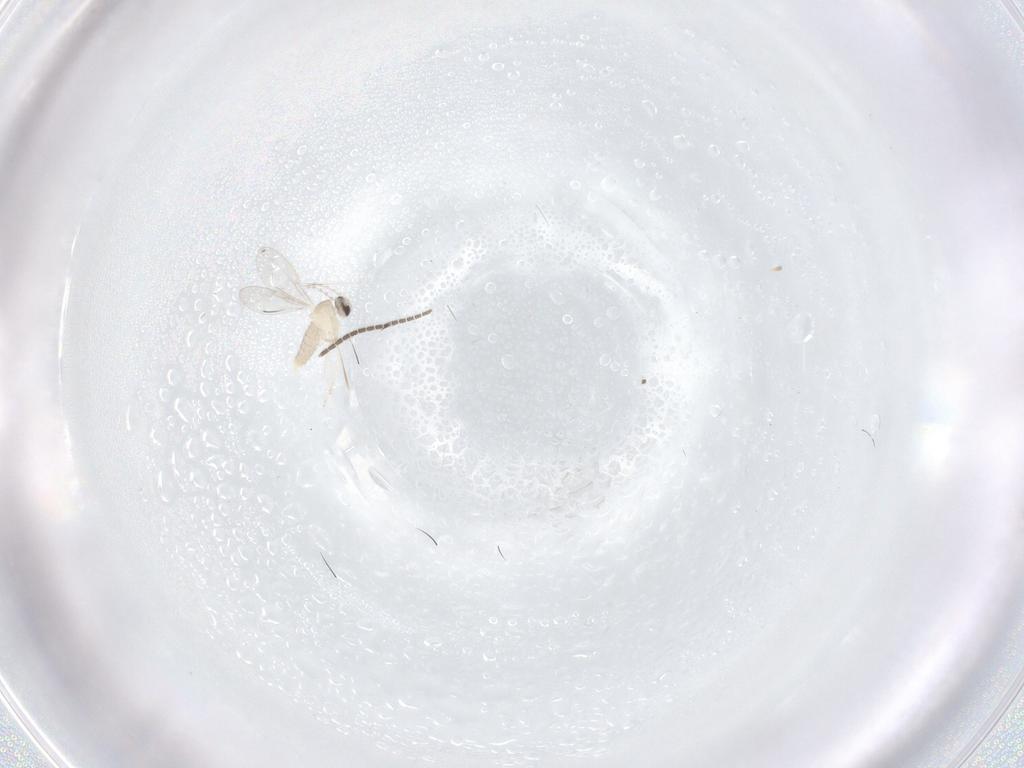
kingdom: Animalia
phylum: Arthropoda
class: Insecta
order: Diptera
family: Cecidomyiidae
